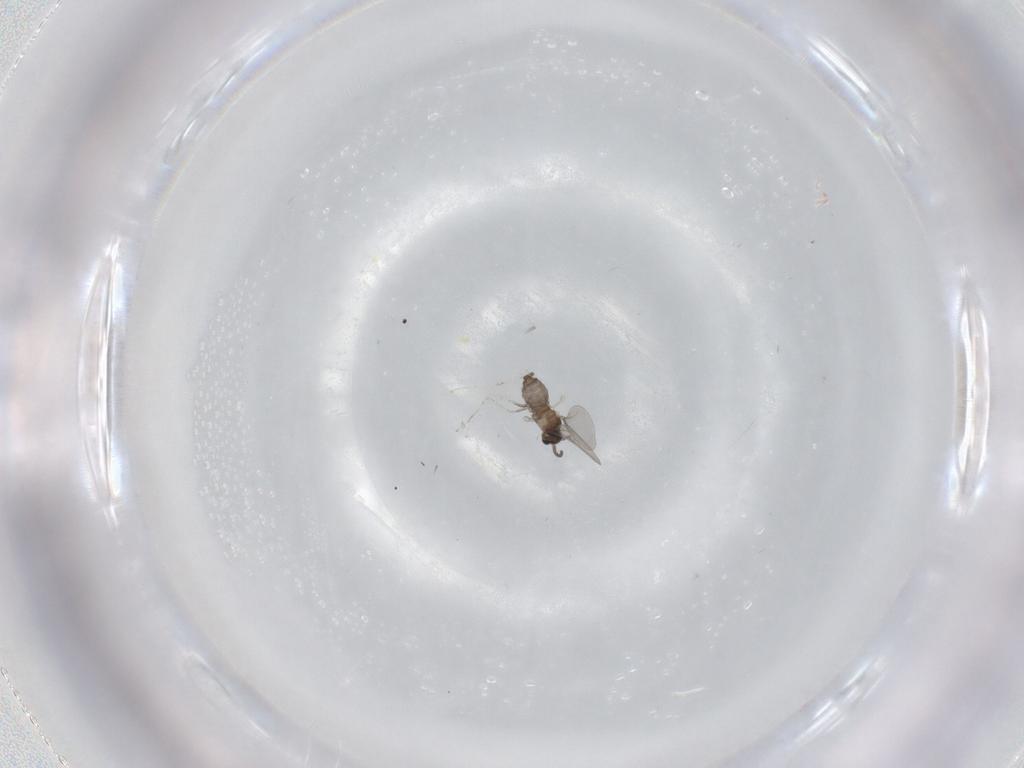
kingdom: Animalia
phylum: Arthropoda
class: Insecta
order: Diptera
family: Cecidomyiidae
